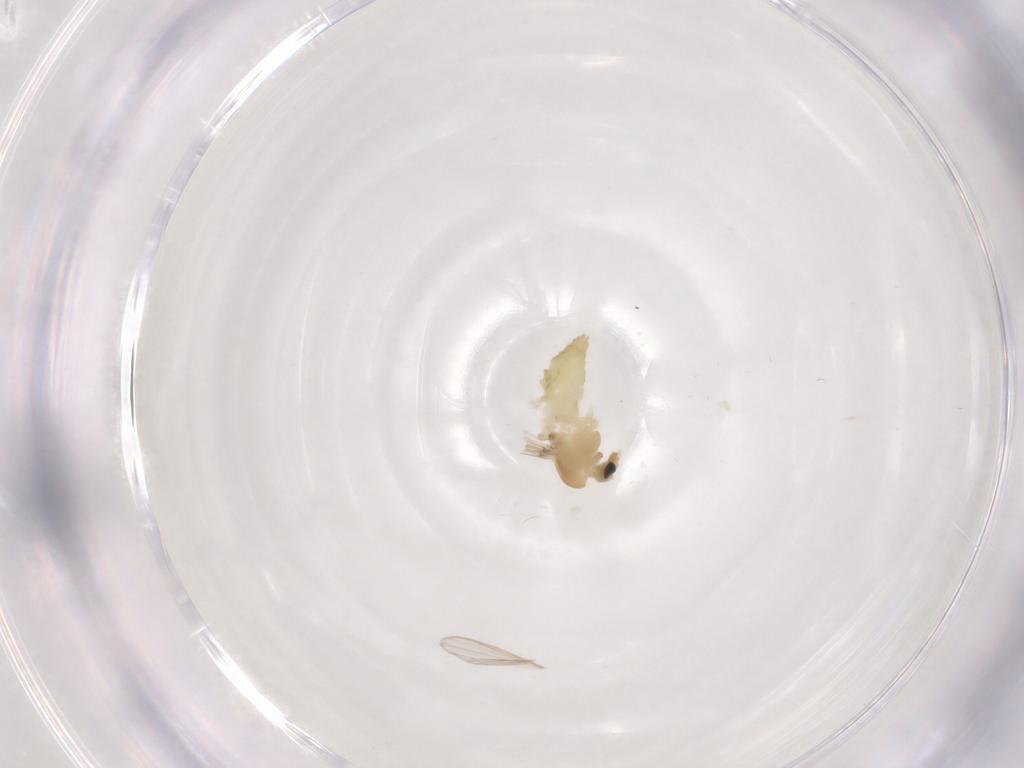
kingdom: Animalia
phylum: Arthropoda
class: Insecta
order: Diptera
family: Chironomidae
